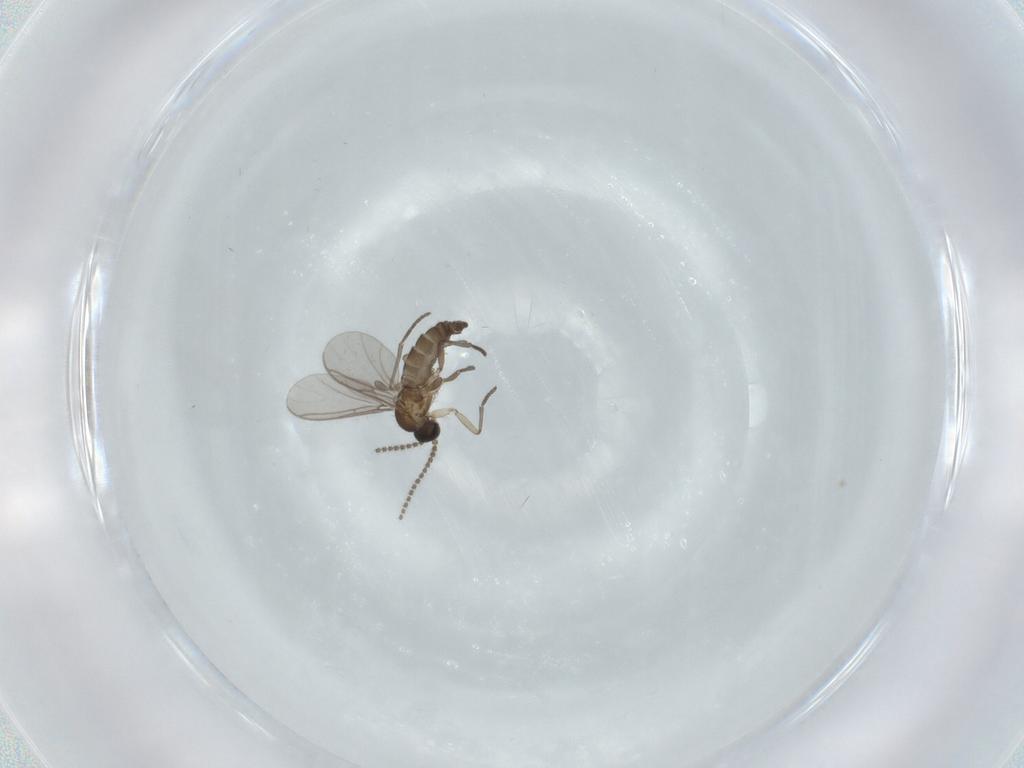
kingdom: Animalia
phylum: Arthropoda
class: Insecta
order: Diptera
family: Cecidomyiidae
